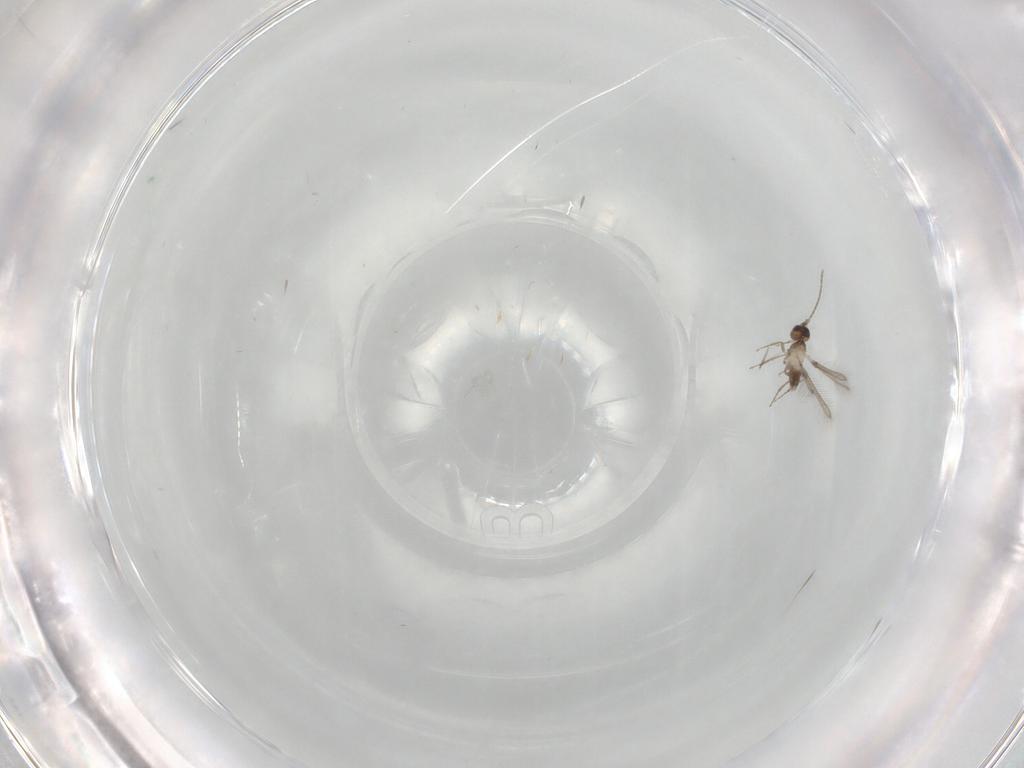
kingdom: Animalia
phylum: Arthropoda
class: Insecta
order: Hymenoptera
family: Mymaridae
